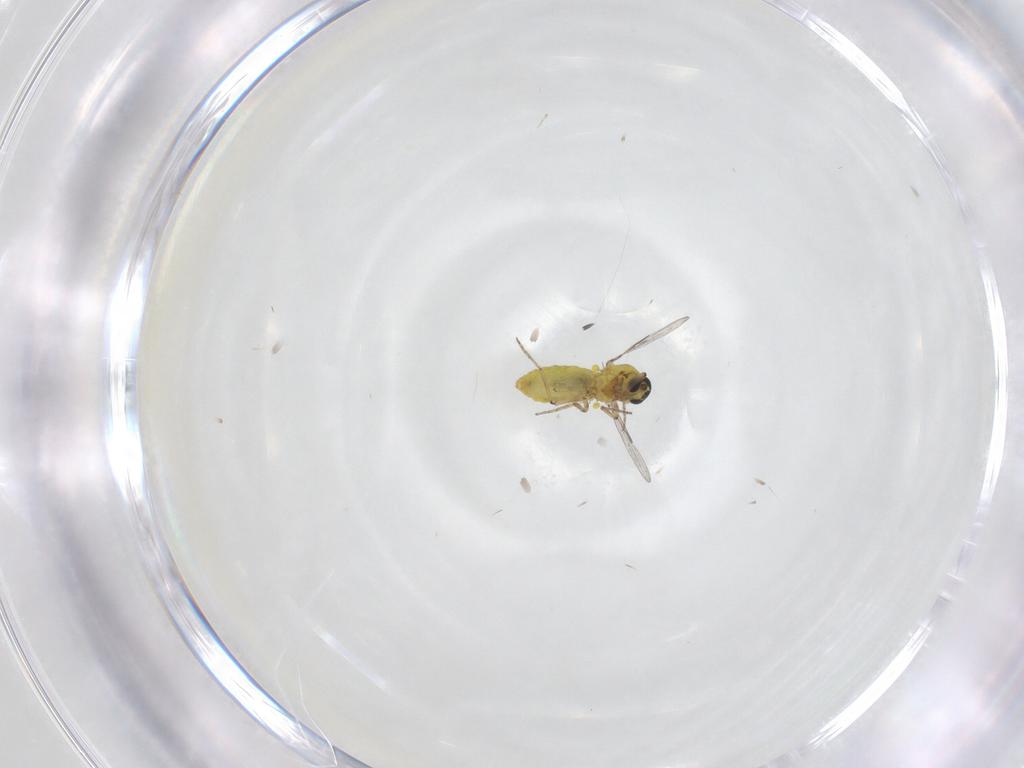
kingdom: Animalia
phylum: Arthropoda
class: Insecta
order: Diptera
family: Ceratopogonidae
